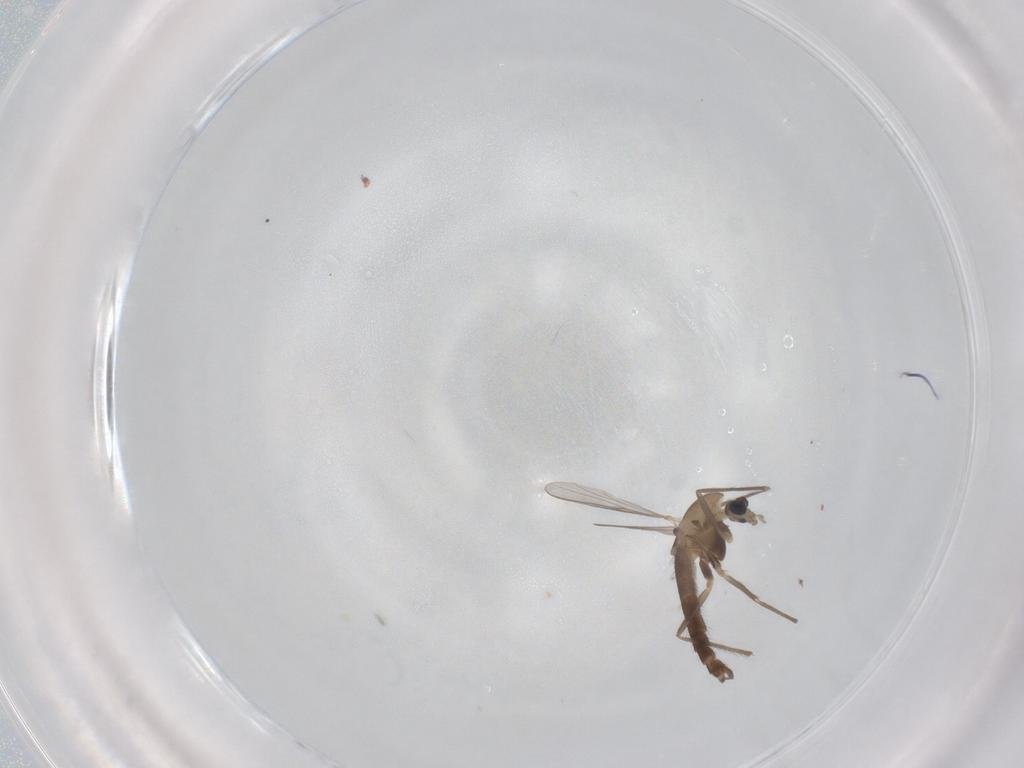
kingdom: Animalia
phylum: Arthropoda
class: Insecta
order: Diptera
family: Chironomidae
